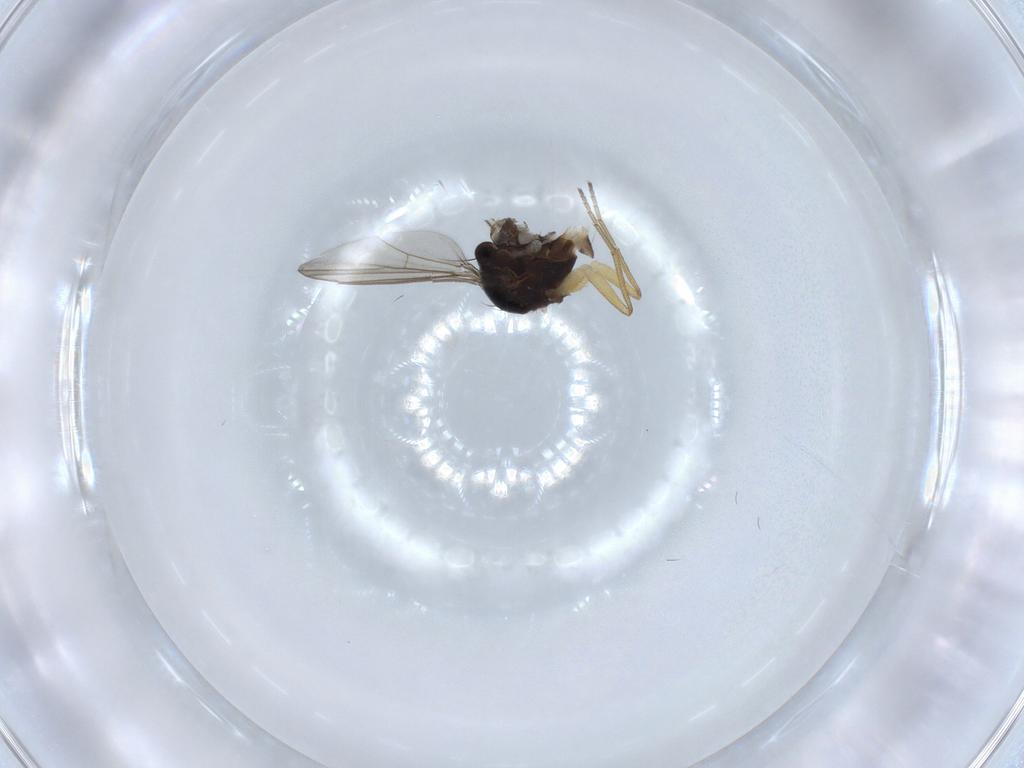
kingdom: Animalia
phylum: Arthropoda
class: Insecta
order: Diptera
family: Dolichopodidae
